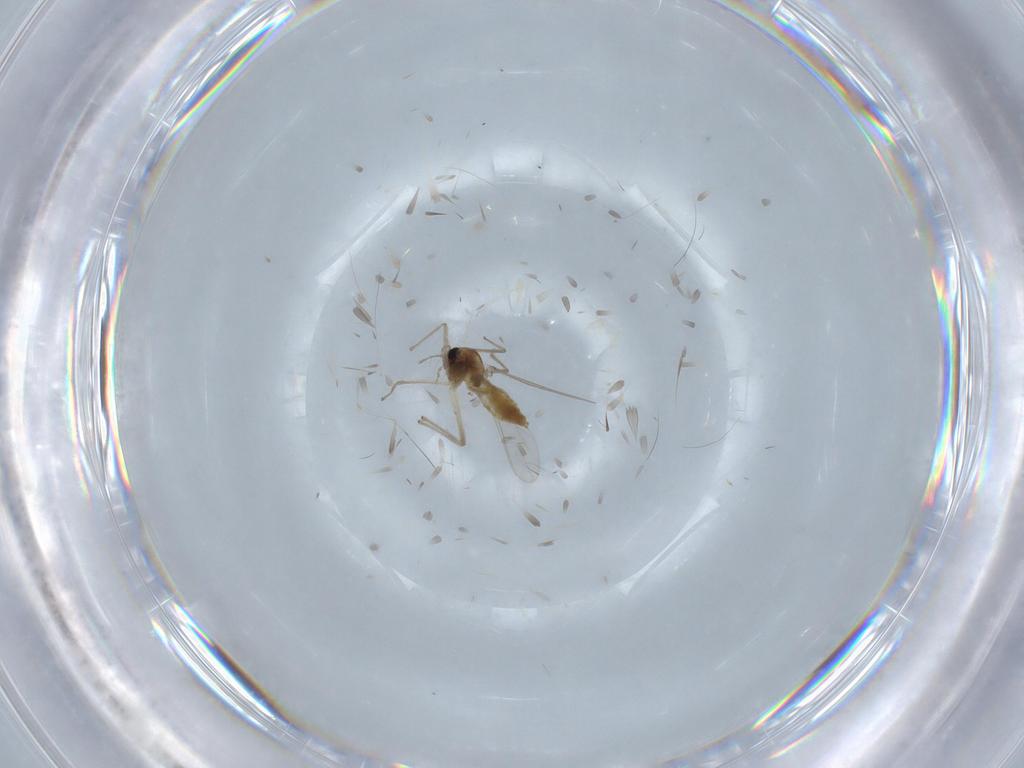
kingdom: Animalia
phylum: Arthropoda
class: Insecta
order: Diptera
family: Chironomidae
